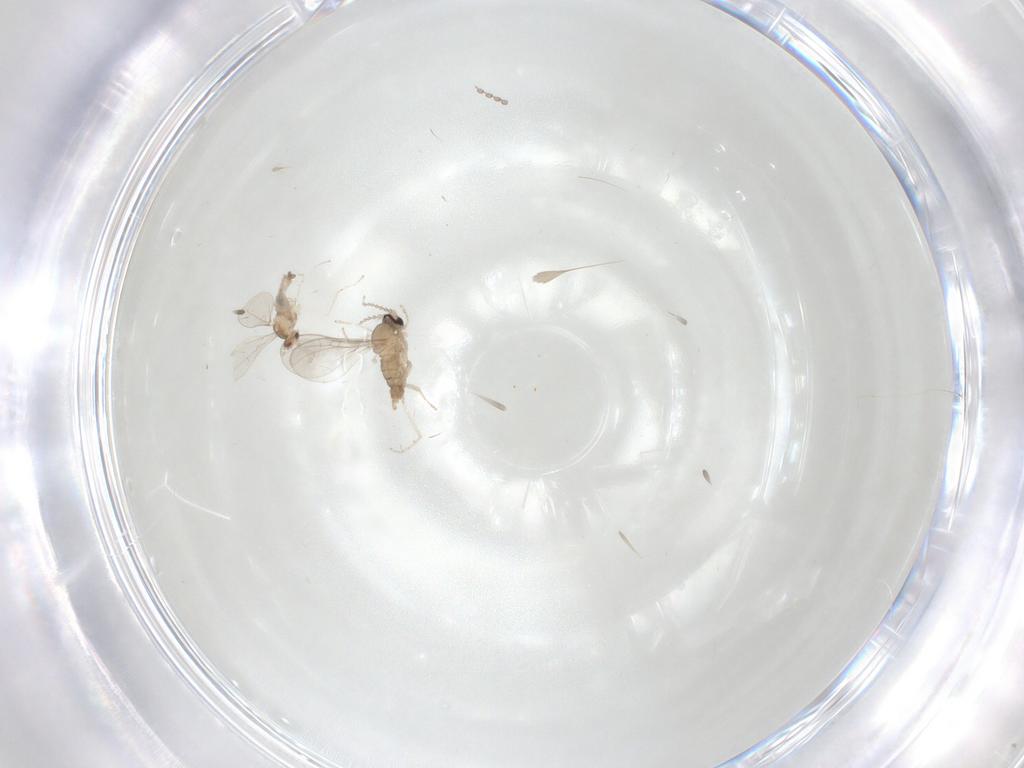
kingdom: Animalia
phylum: Arthropoda
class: Insecta
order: Diptera
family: Cecidomyiidae
